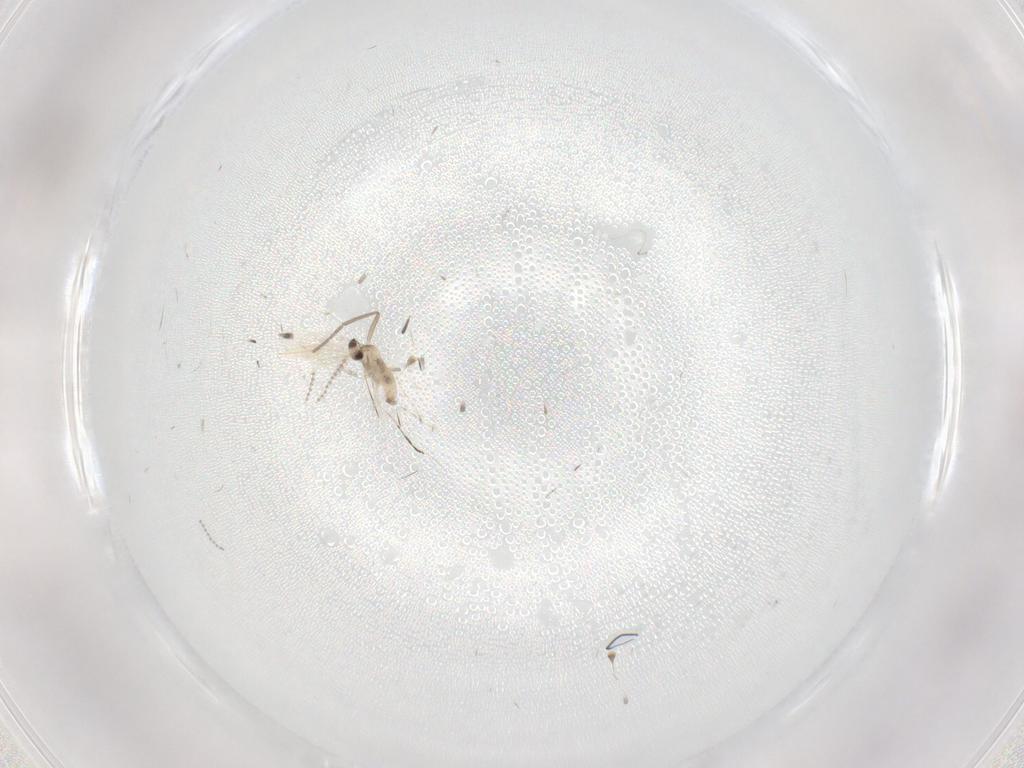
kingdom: Animalia
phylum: Arthropoda
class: Insecta
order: Diptera
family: Cecidomyiidae
